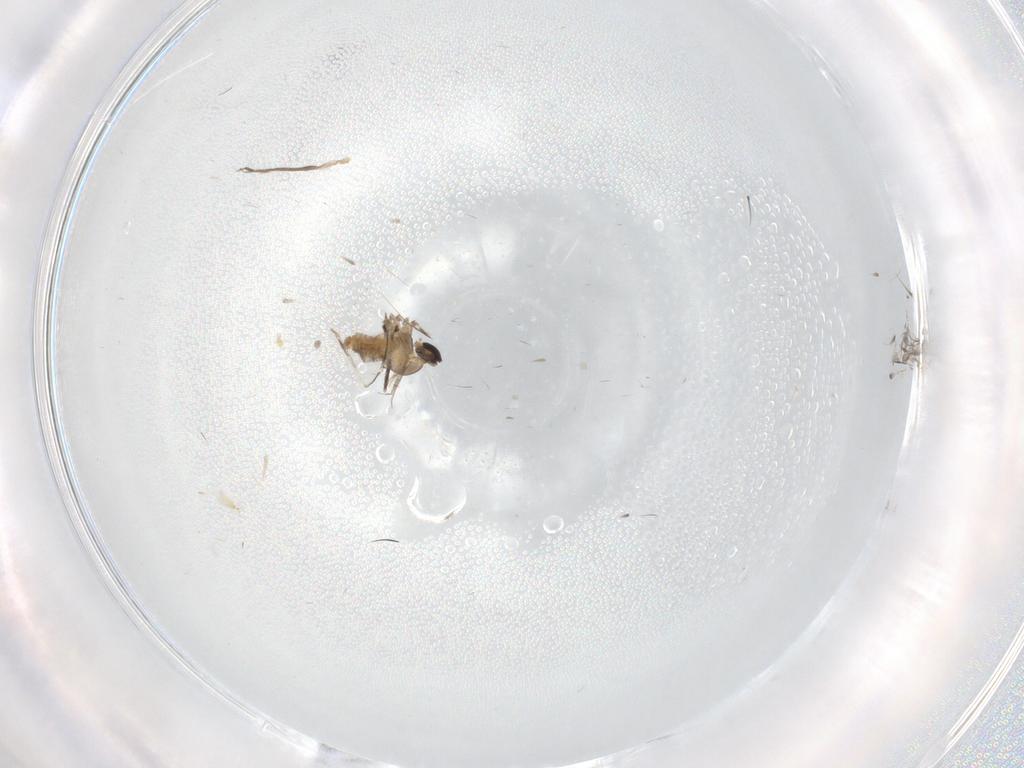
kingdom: Animalia
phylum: Arthropoda
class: Insecta
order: Diptera
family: Cecidomyiidae
